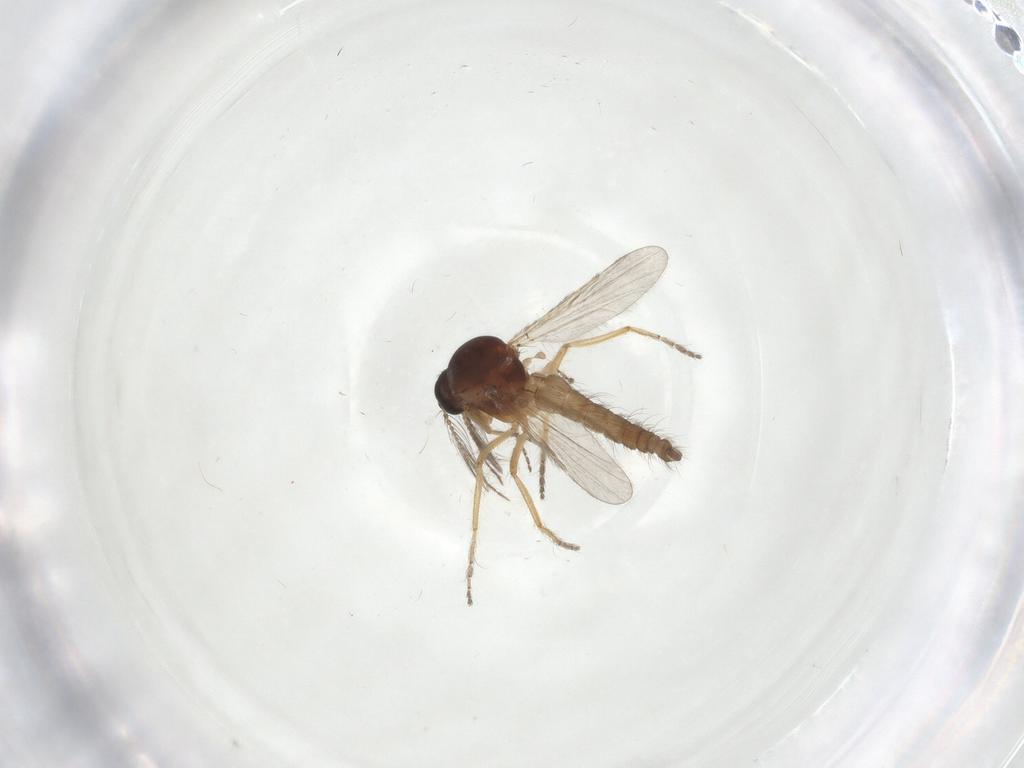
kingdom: Animalia
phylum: Arthropoda
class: Insecta
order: Diptera
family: Ceratopogonidae
